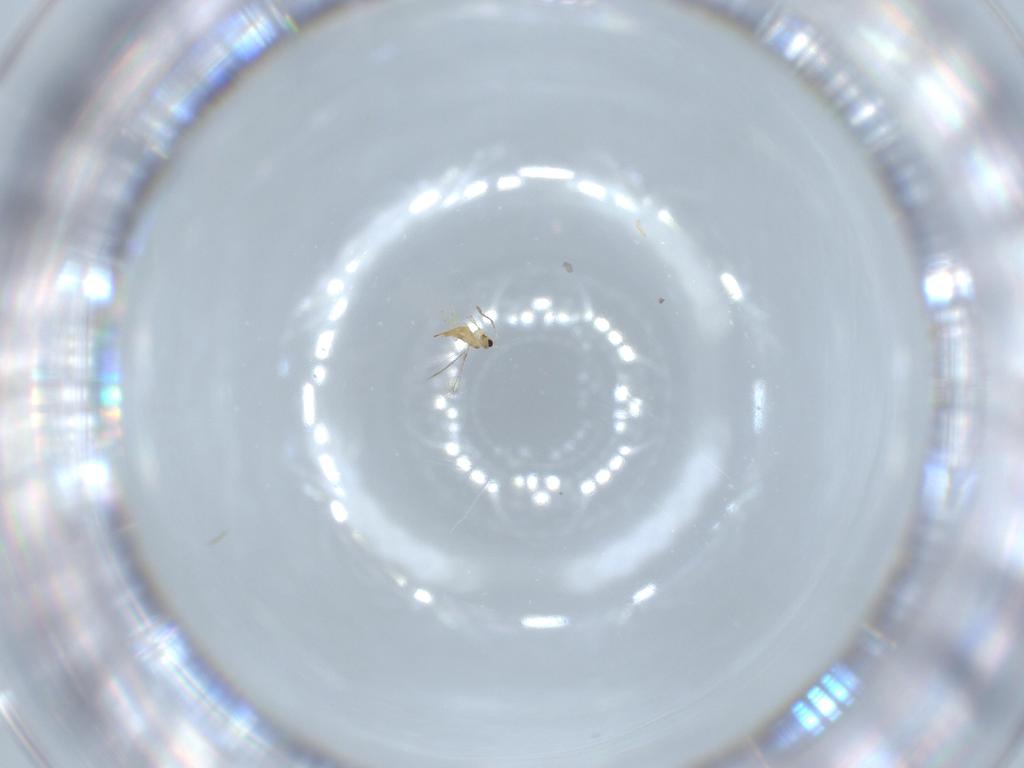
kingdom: Animalia
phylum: Arthropoda
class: Insecta
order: Hymenoptera
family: Mymaridae
